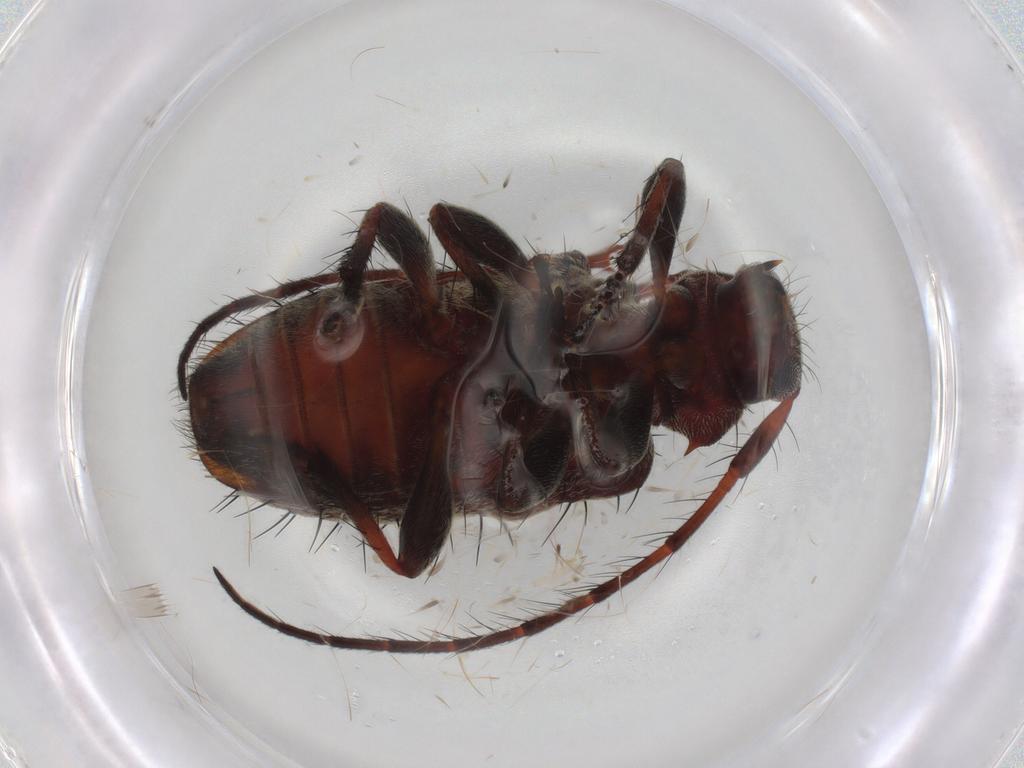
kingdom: Animalia
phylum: Arthropoda
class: Insecta
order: Coleoptera
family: Cerambycidae
